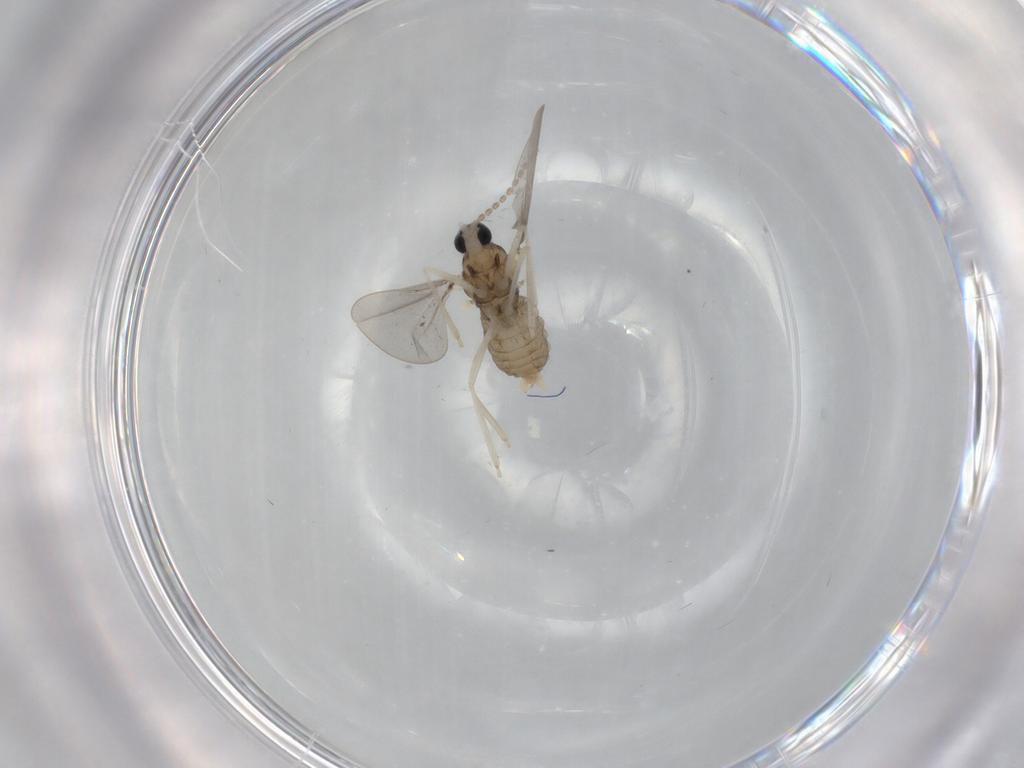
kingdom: Animalia
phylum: Arthropoda
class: Insecta
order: Diptera
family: Cecidomyiidae
